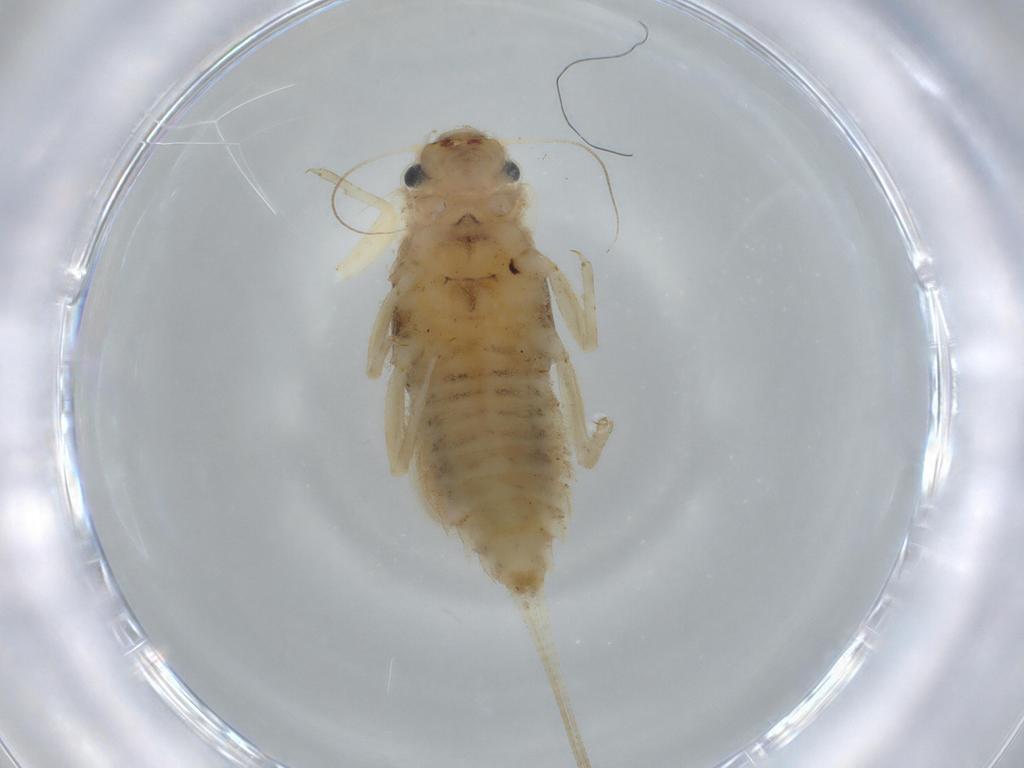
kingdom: Animalia
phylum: Arthropoda
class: Insecta
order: Ephemeroptera
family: Caenidae
